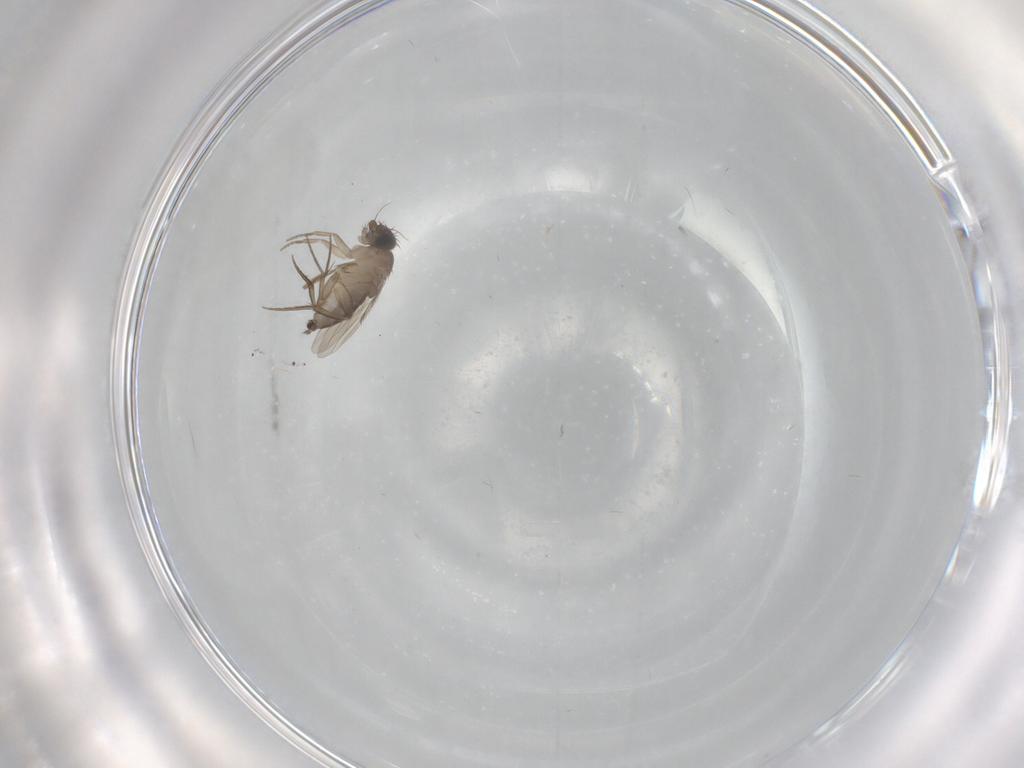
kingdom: Animalia
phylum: Arthropoda
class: Insecta
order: Diptera
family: Phoridae
